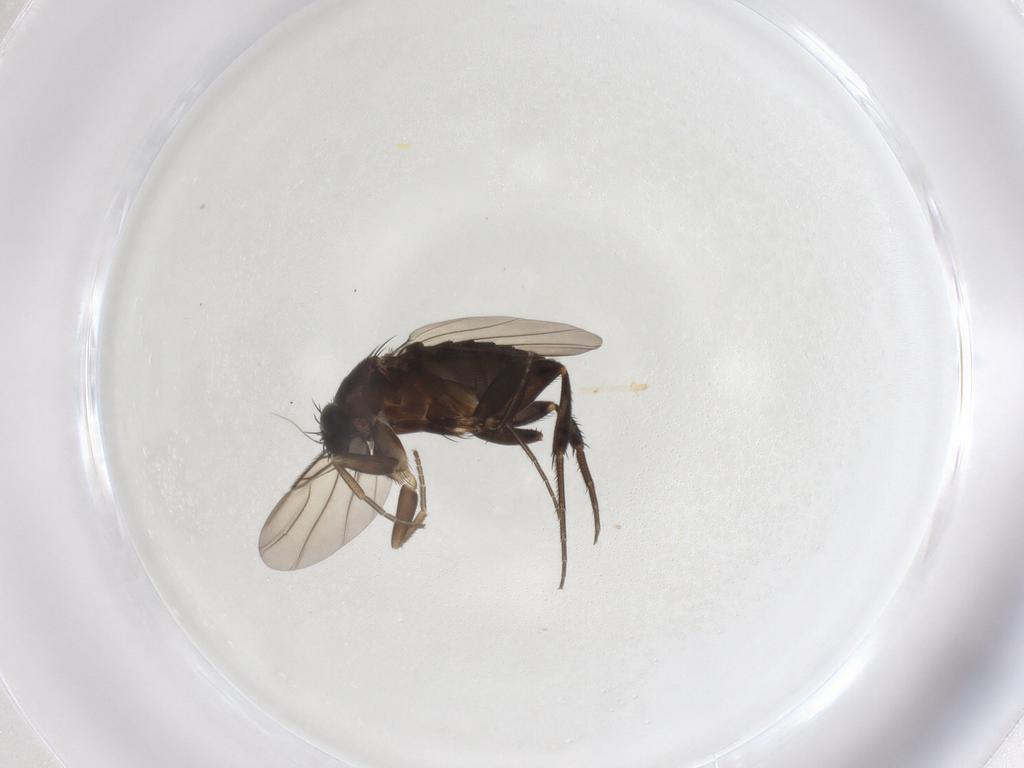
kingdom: Animalia
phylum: Arthropoda
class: Insecta
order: Diptera
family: Phoridae
